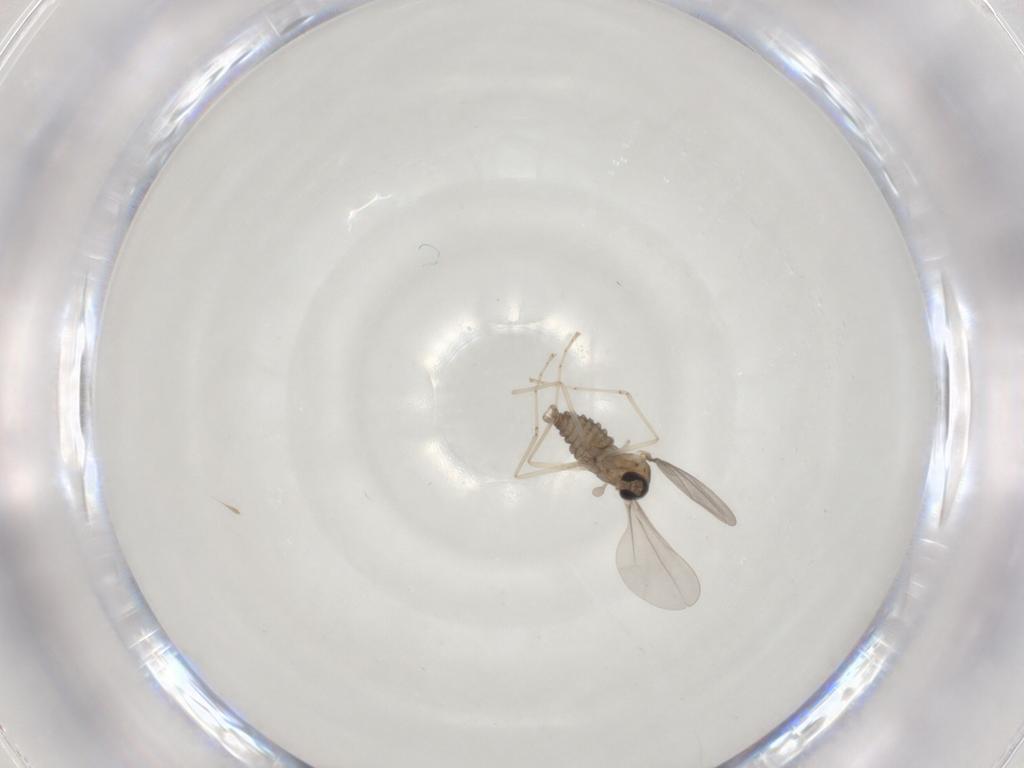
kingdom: Animalia
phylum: Arthropoda
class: Insecta
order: Diptera
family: Cecidomyiidae
